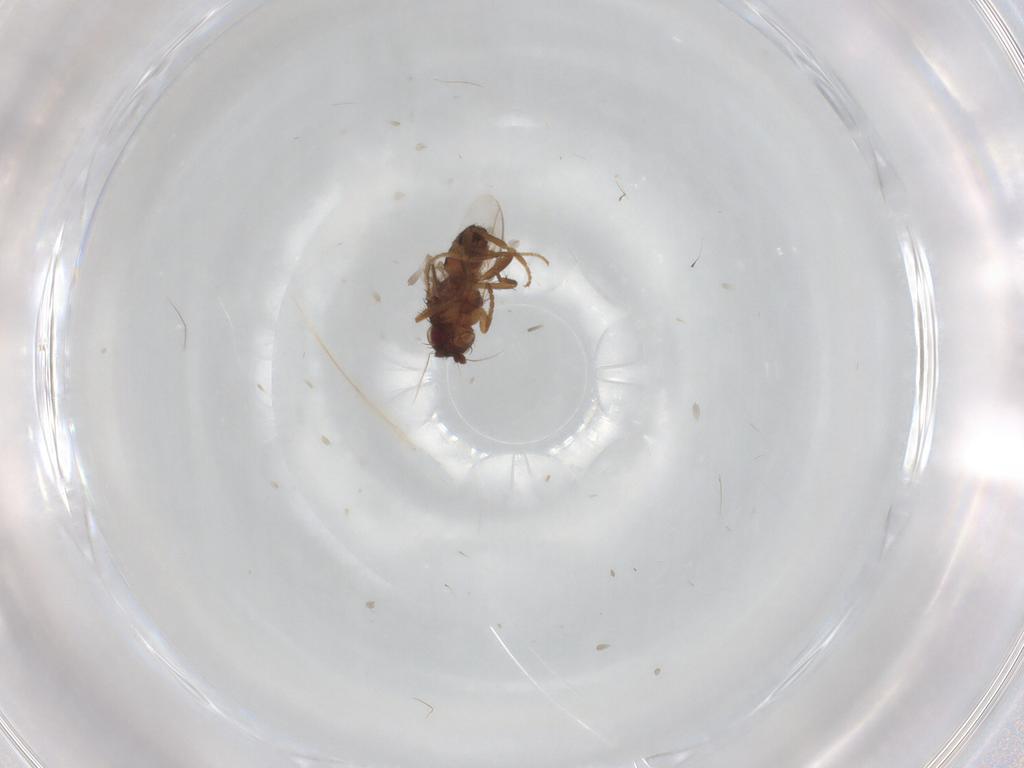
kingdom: Animalia
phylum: Arthropoda
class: Insecta
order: Diptera
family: Sphaeroceridae
